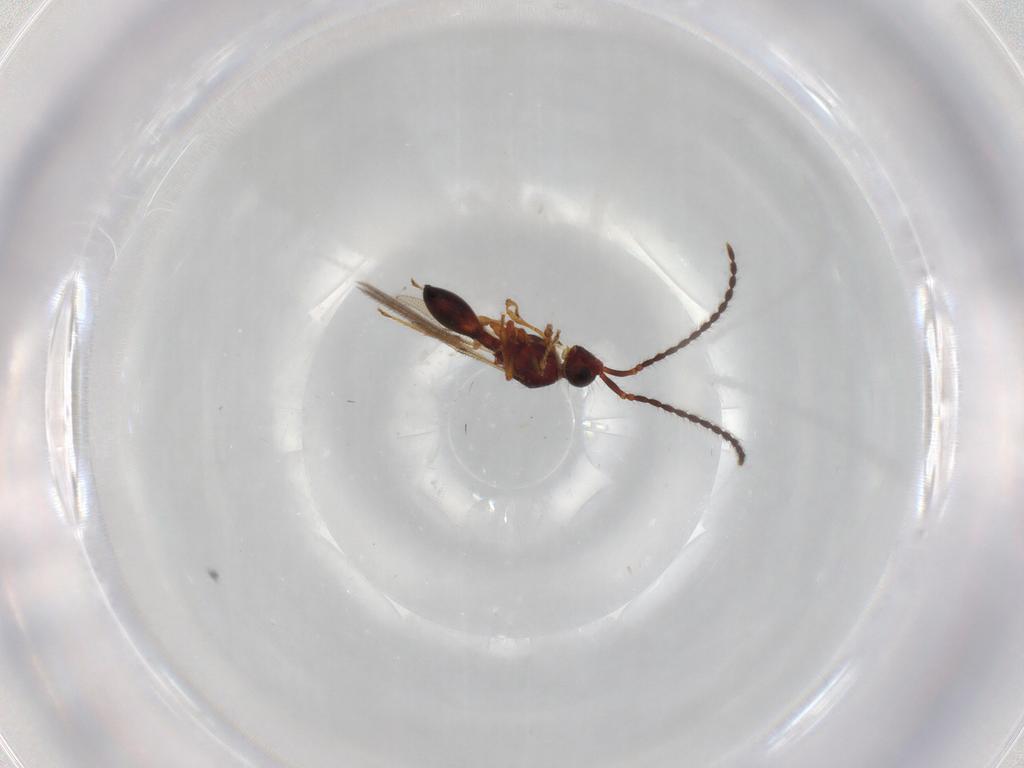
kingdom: Animalia
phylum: Arthropoda
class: Insecta
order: Hymenoptera
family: Diapriidae
